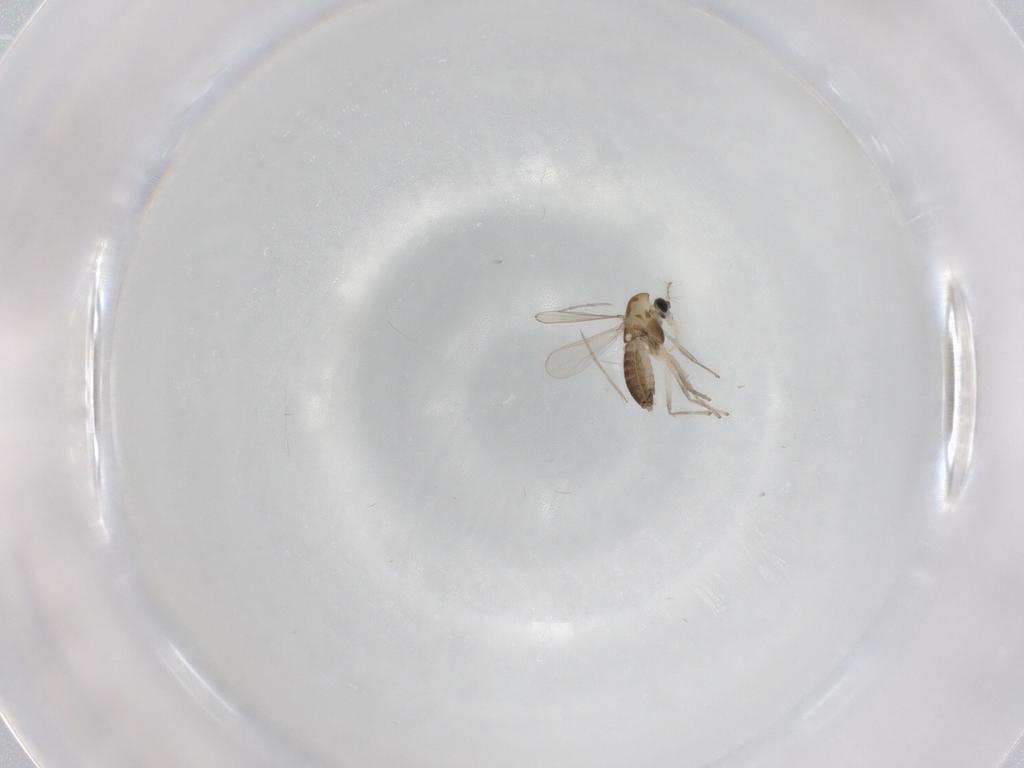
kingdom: Animalia
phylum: Arthropoda
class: Insecta
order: Diptera
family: Chironomidae
